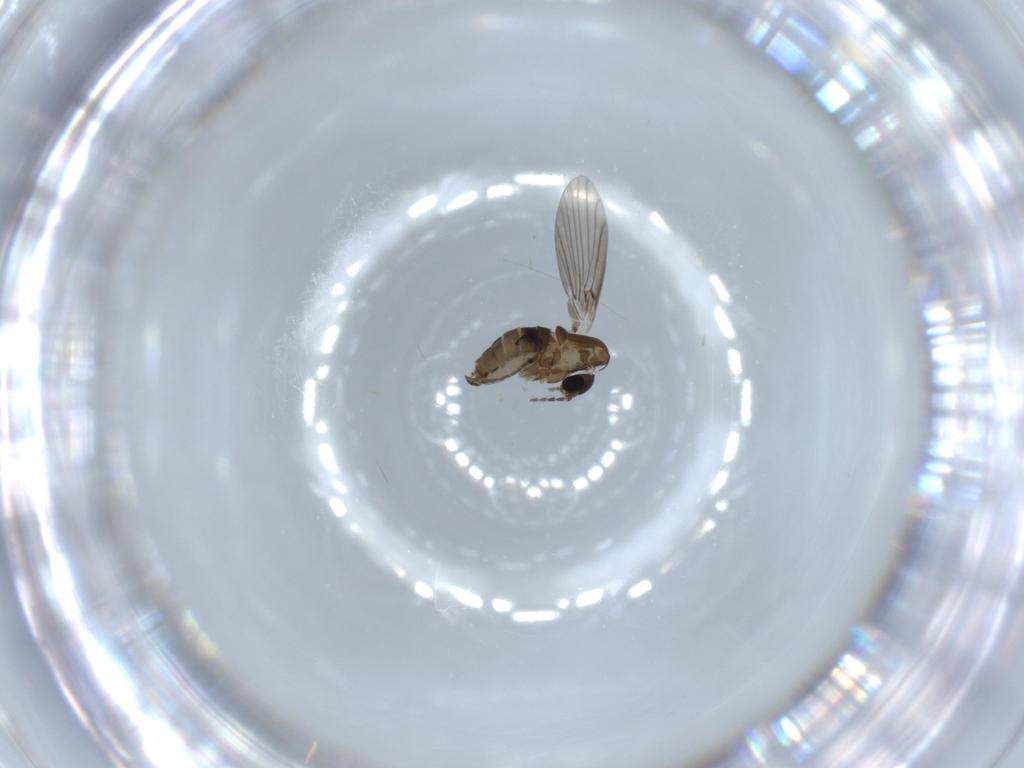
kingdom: Animalia
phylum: Arthropoda
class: Insecta
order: Diptera
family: Psychodidae
